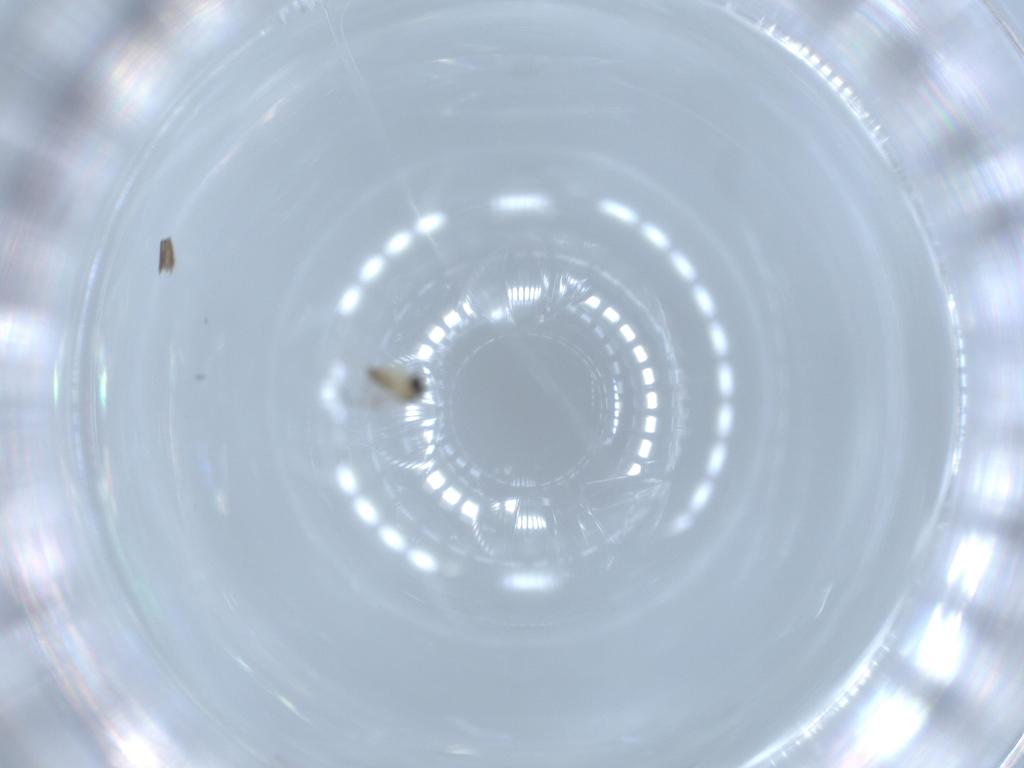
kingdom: Animalia
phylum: Arthropoda
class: Insecta
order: Diptera
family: Cecidomyiidae
